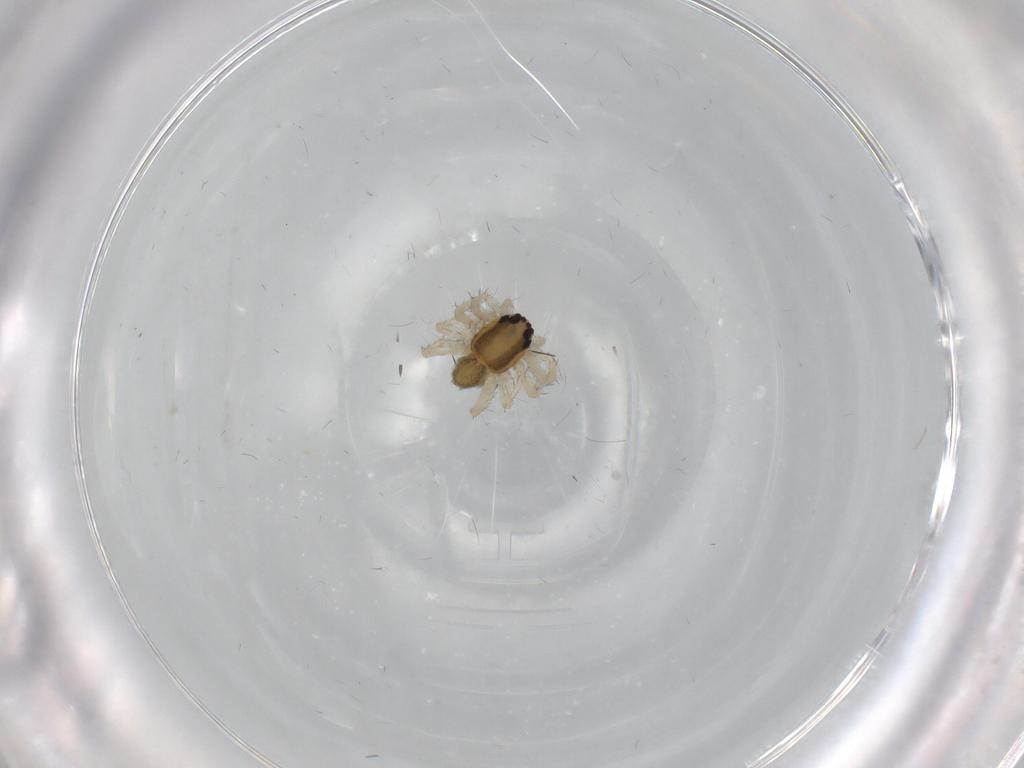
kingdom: Animalia
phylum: Arthropoda
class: Arachnida
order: Araneae
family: Pisauridae
